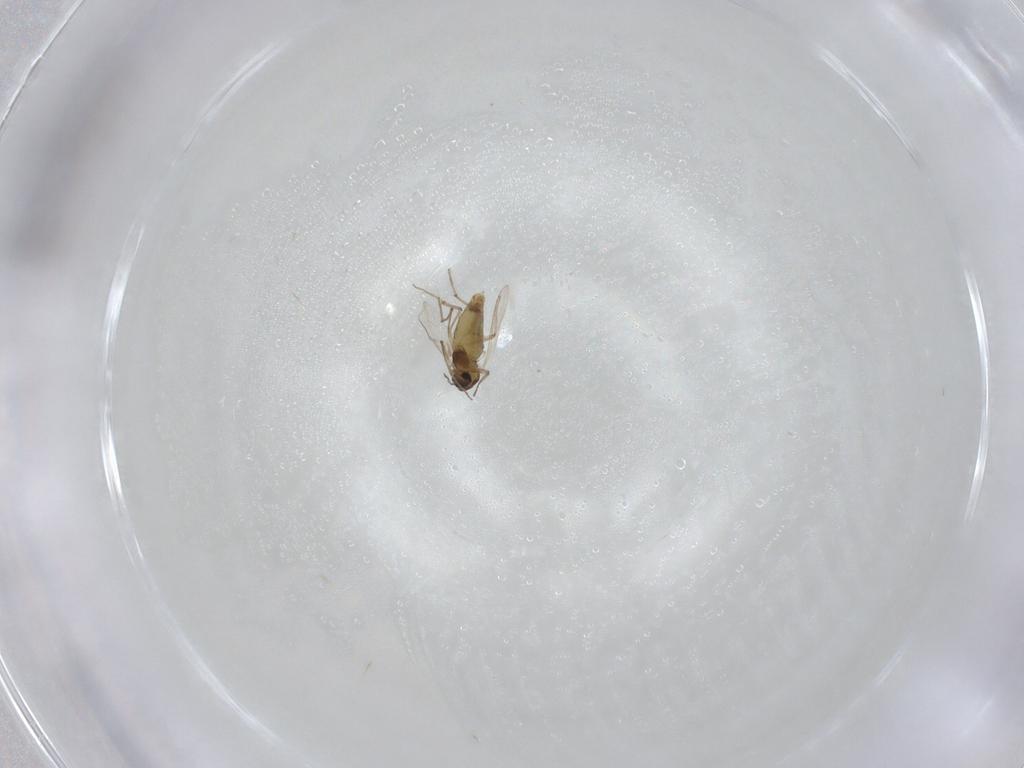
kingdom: Animalia
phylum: Arthropoda
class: Insecta
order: Diptera
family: Chironomidae
